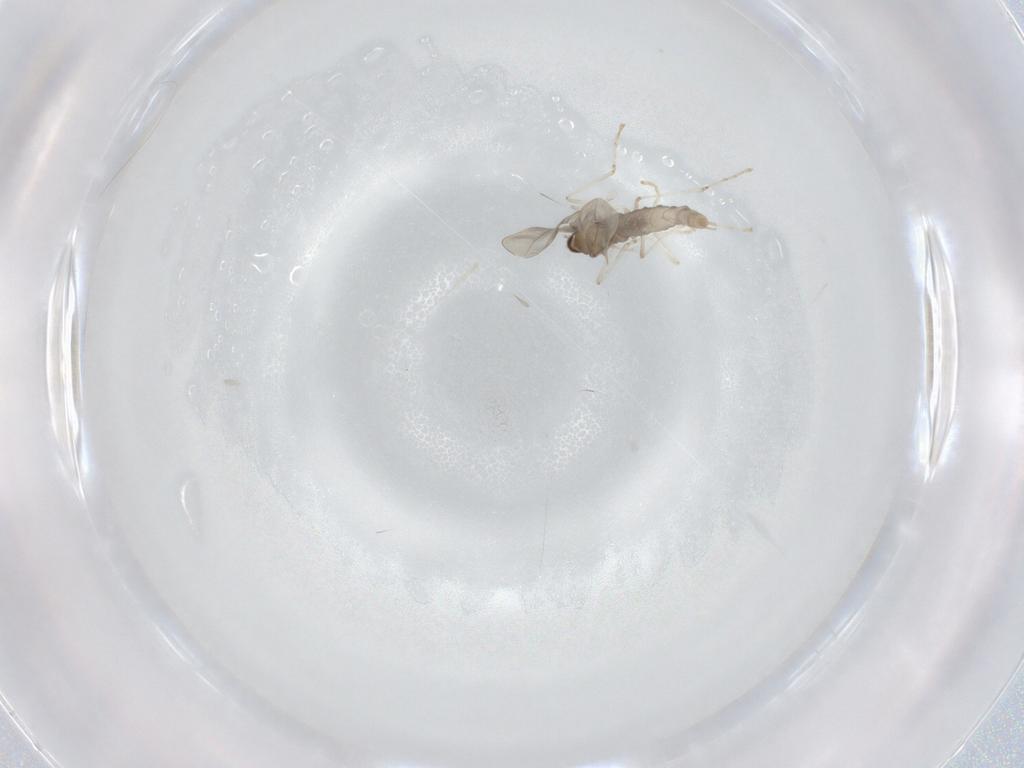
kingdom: Animalia
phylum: Arthropoda
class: Insecta
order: Diptera
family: Cecidomyiidae
